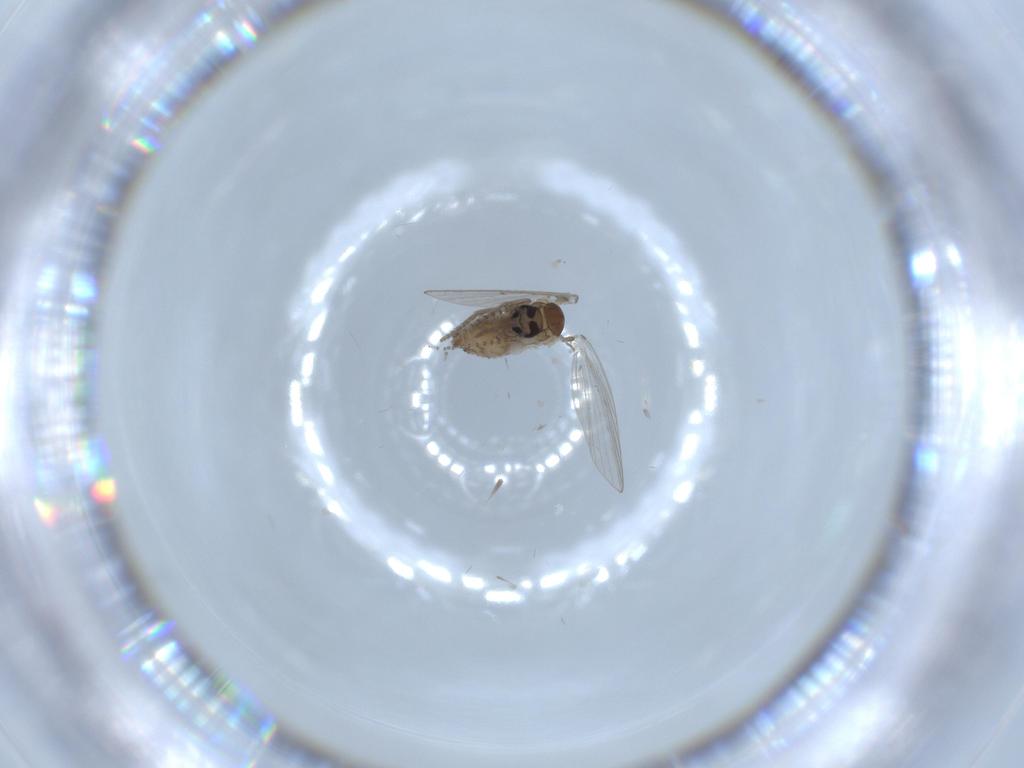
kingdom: Animalia
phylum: Arthropoda
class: Insecta
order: Diptera
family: Psychodidae
